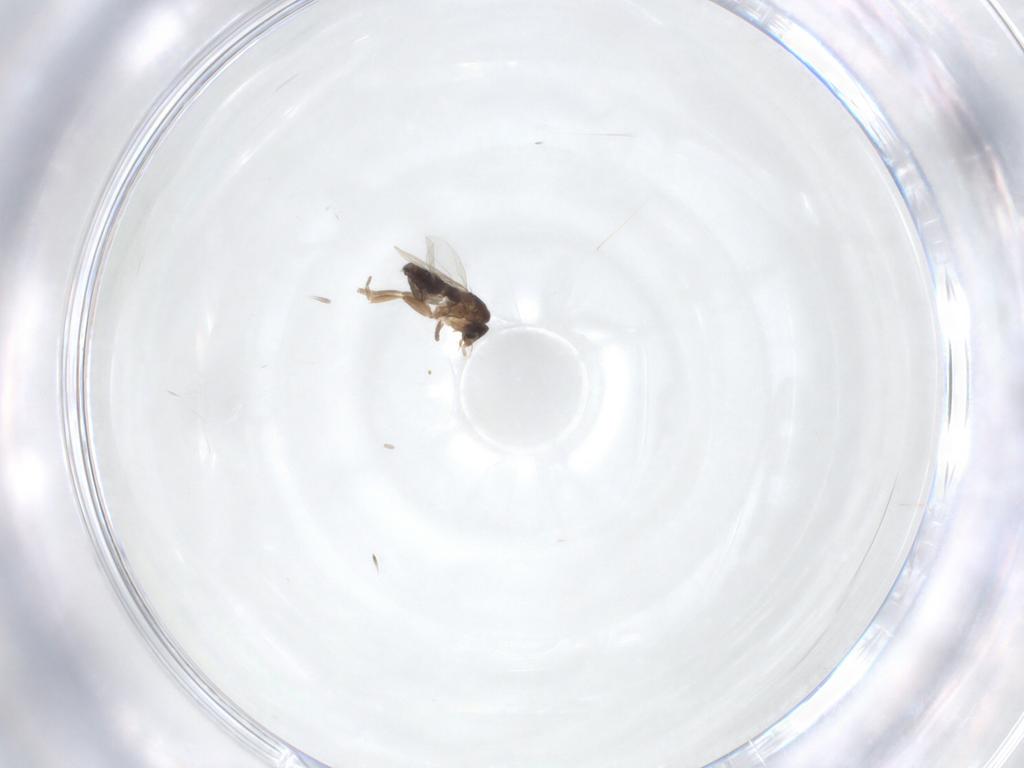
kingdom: Animalia
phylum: Arthropoda
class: Insecta
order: Diptera
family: Phoridae
